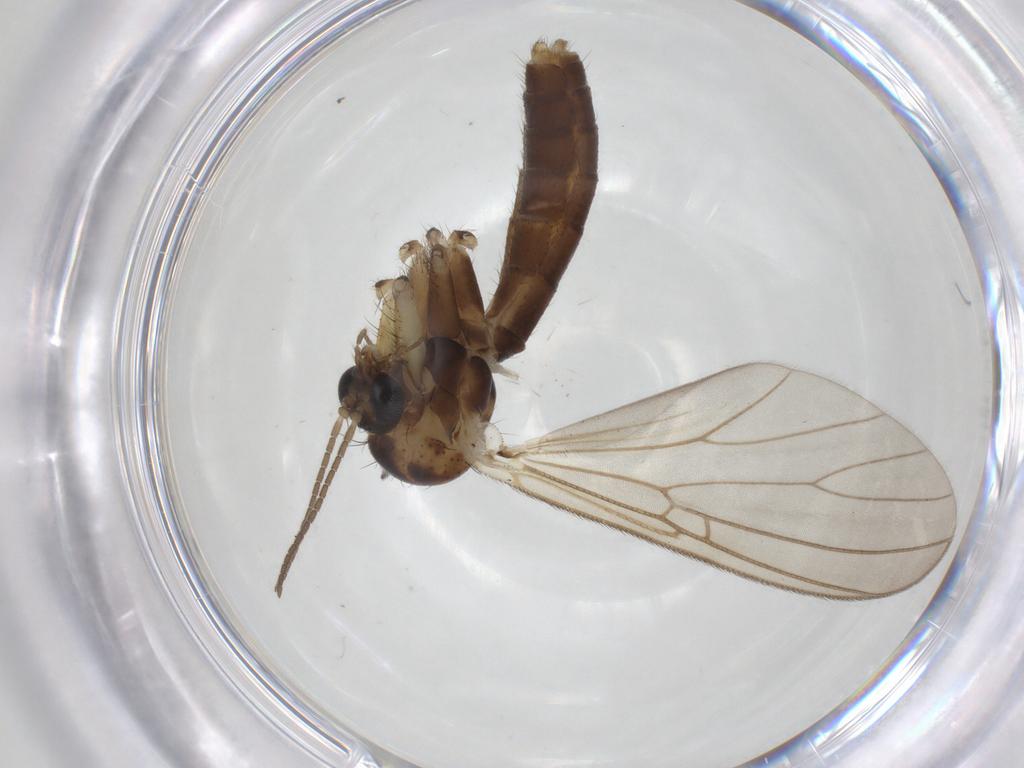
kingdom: Animalia
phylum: Arthropoda
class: Insecta
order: Diptera
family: Mycetophilidae
